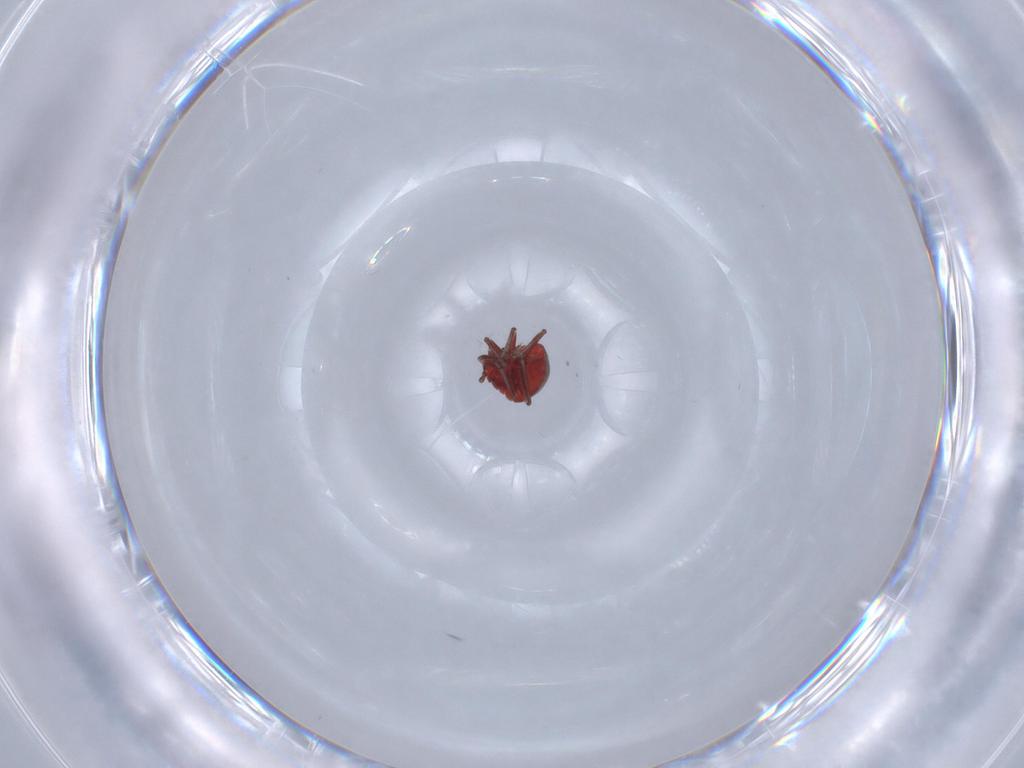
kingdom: Animalia
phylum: Arthropoda
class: Insecta
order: Hemiptera
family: Schizopteridae
